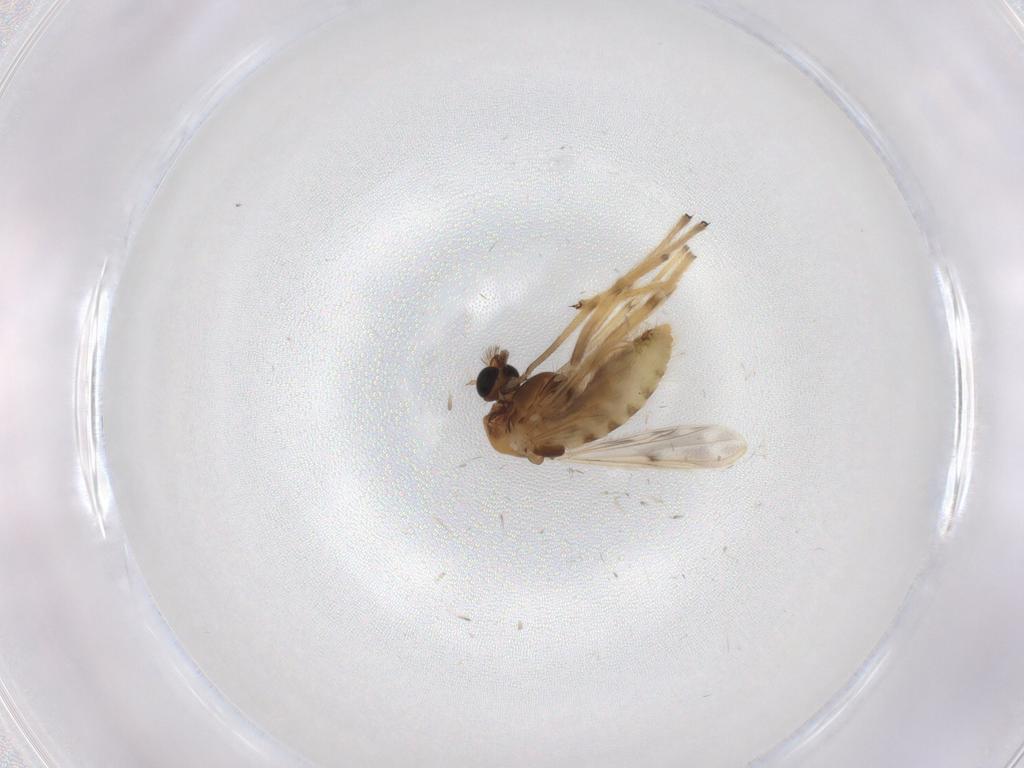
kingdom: Animalia
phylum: Arthropoda
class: Insecta
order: Diptera
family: Chironomidae
